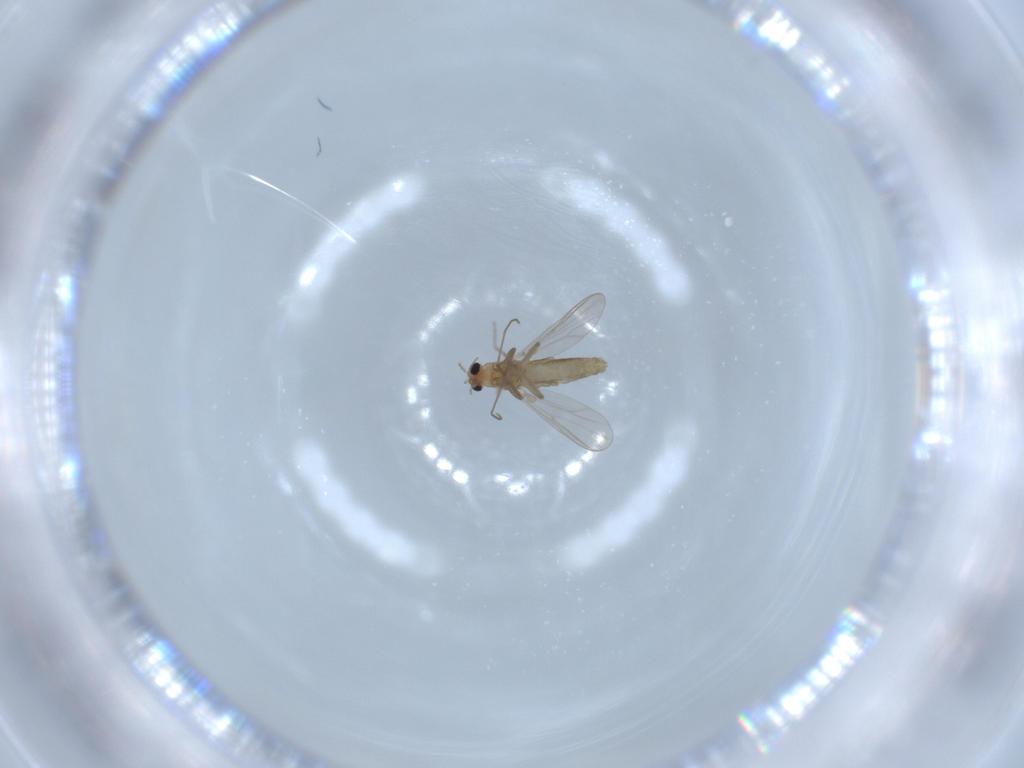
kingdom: Animalia
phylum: Arthropoda
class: Insecta
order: Diptera
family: Chironomidae
